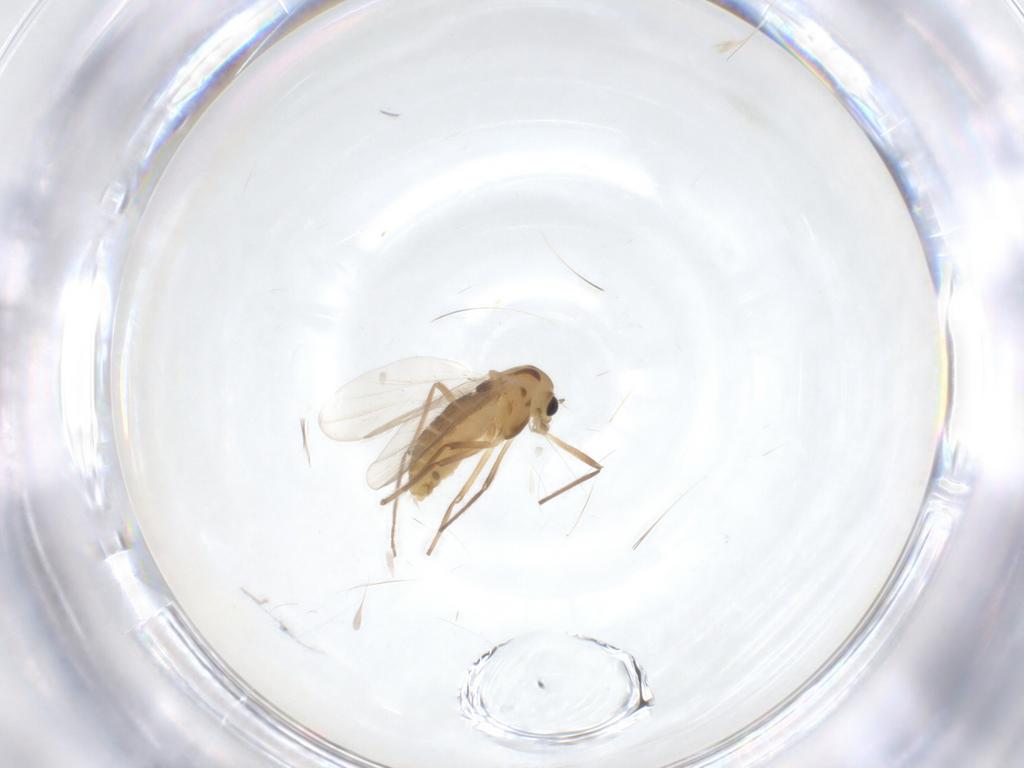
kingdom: Animalia
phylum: Arthropoda
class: Insecta
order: Diptera
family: Chironomidae
